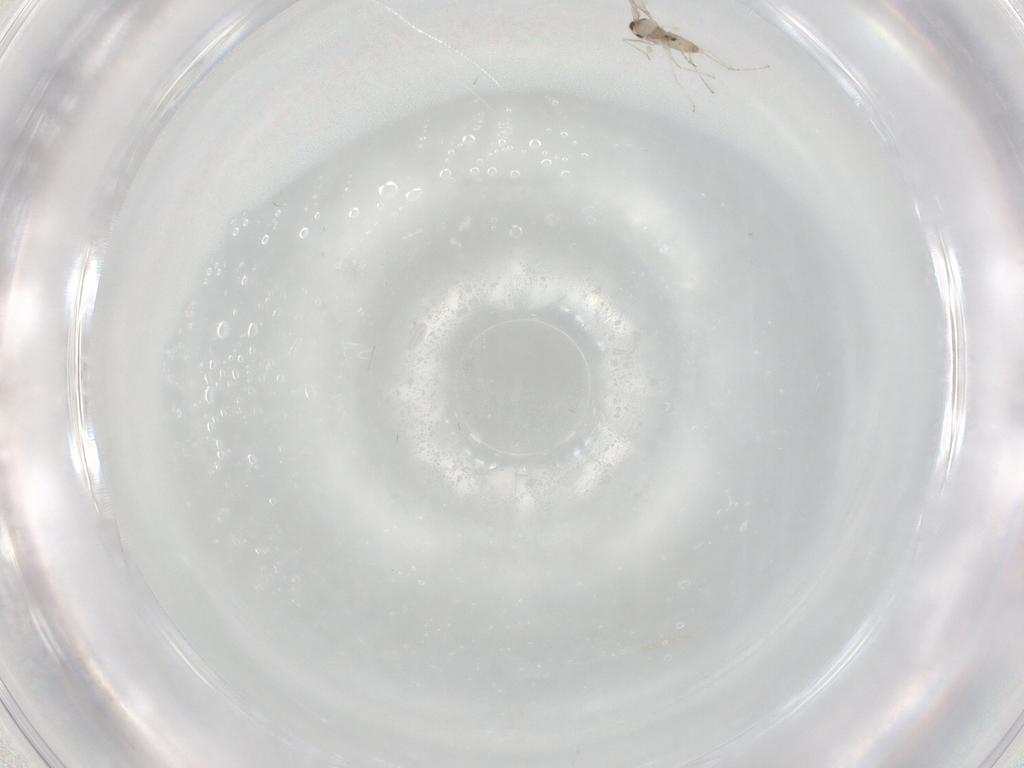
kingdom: Animalia
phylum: Arthropoda
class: Insecta
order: Diptera
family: Cecidomyiidae
